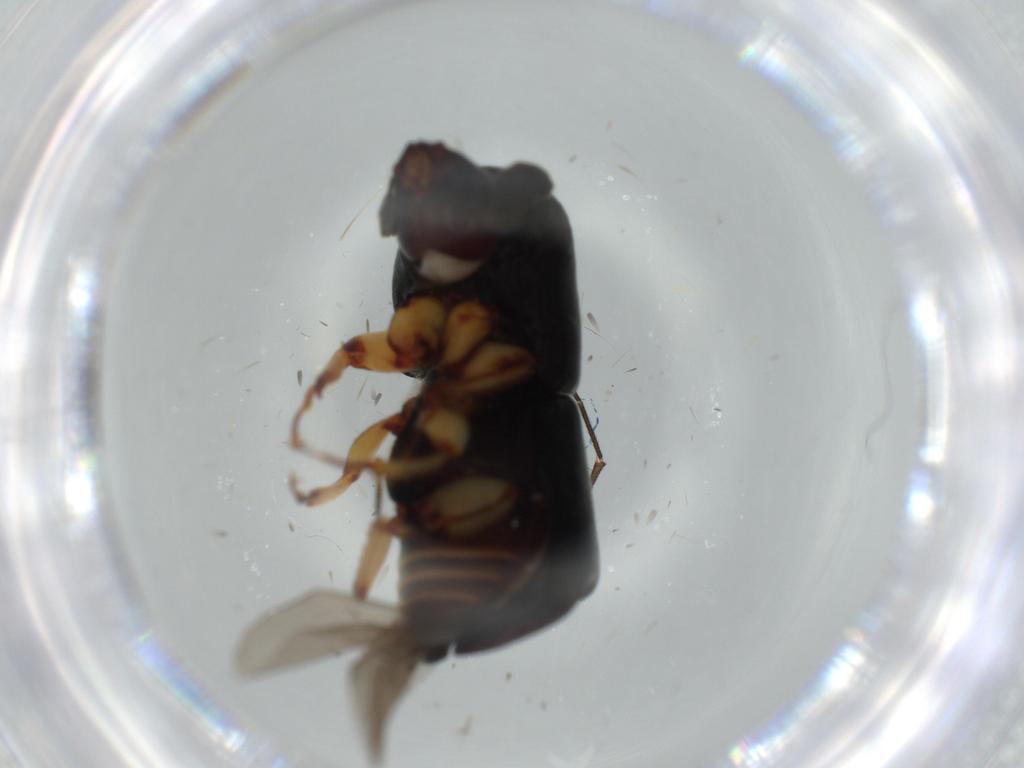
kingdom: Animalia
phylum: Arthropoda
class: Insecta
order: Coleoptera
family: Curculionidae
